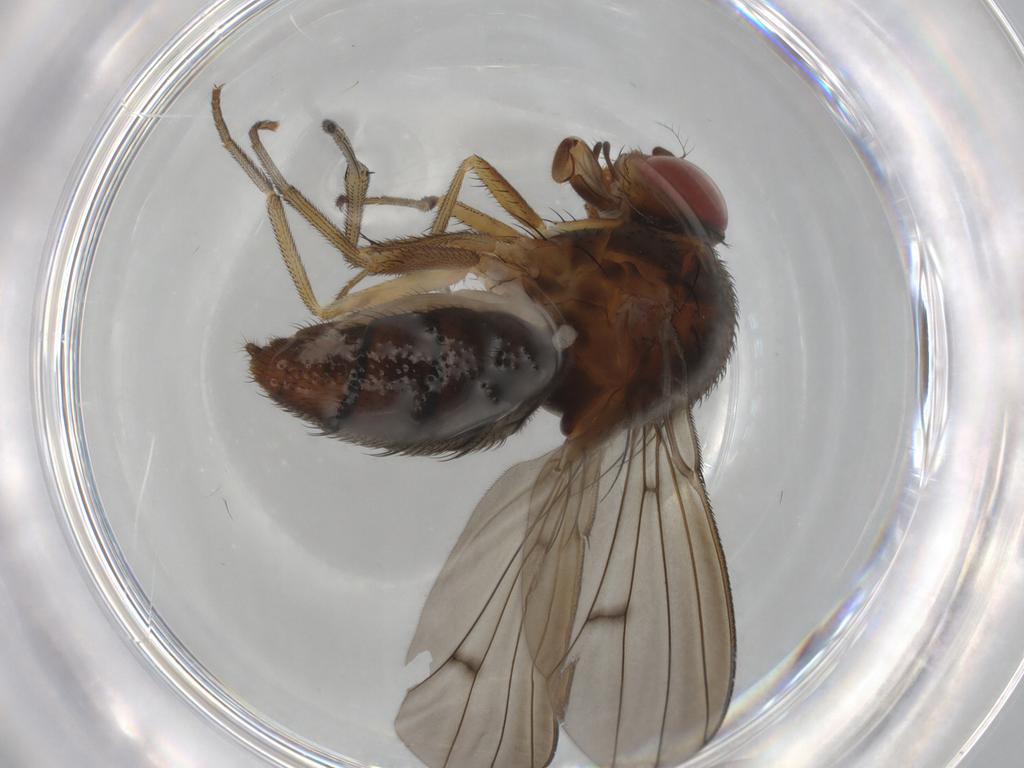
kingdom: Animalia
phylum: Arthropoda
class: Insecta
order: Diptera
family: Curtonotidae
